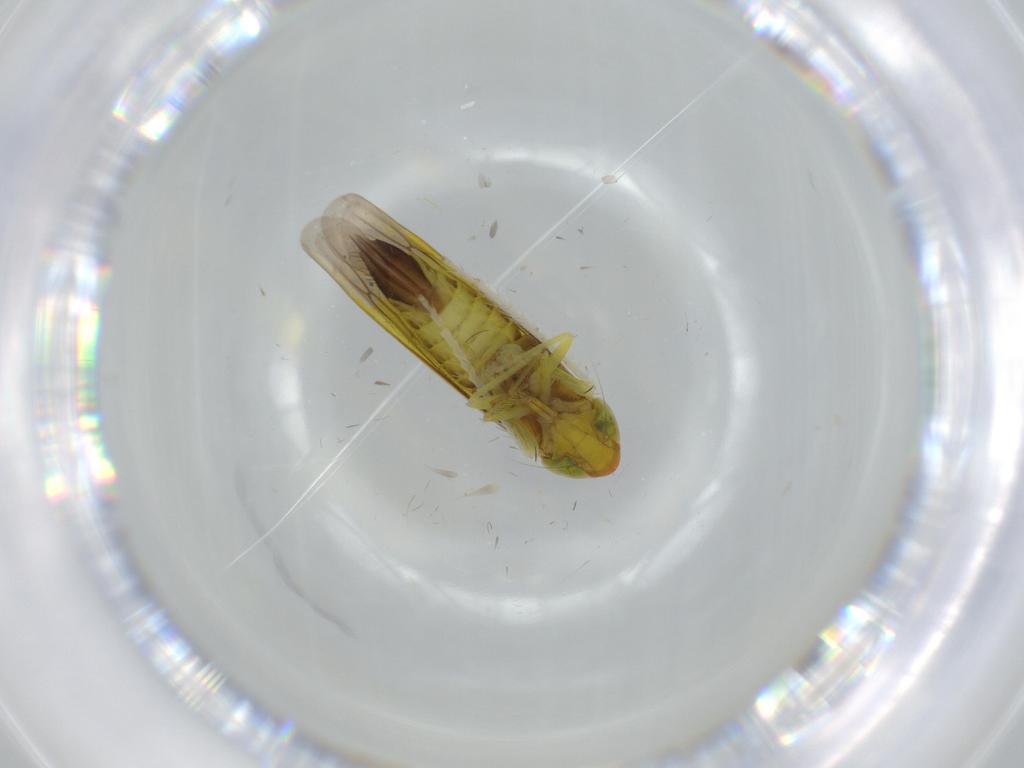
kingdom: Animalia
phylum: Arthropoda
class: Insecta
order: Hemiptera
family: Cicadellidae
